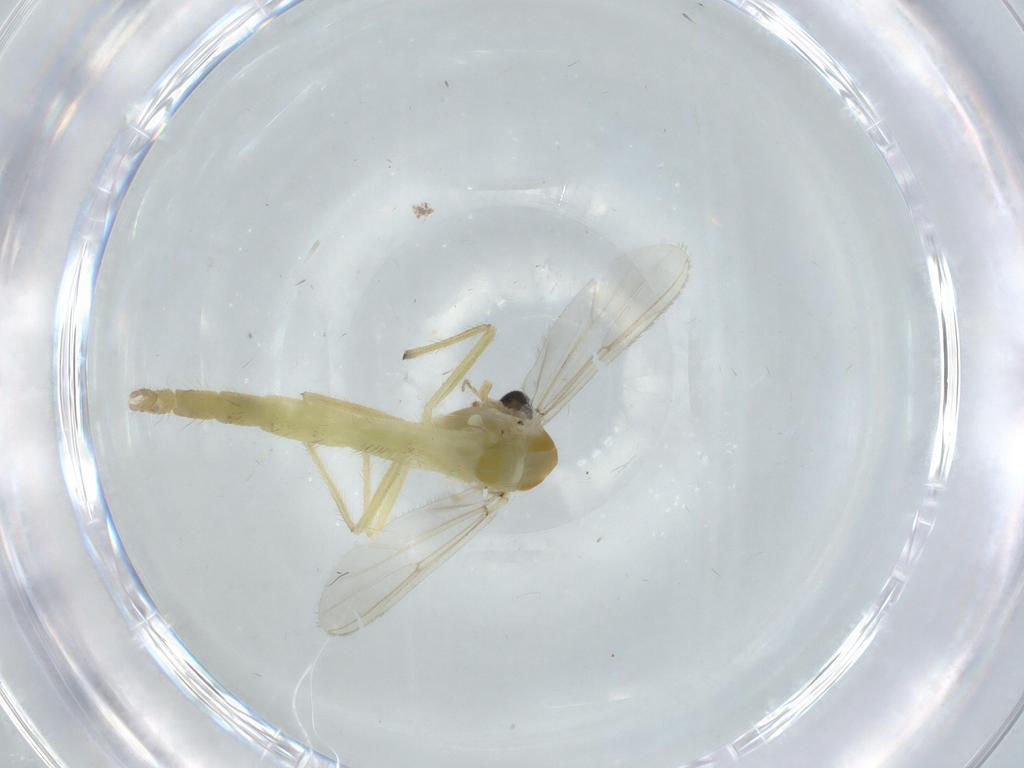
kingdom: Animalia
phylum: Arthropoda
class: Insecta
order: Diptera
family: Chironomidae
